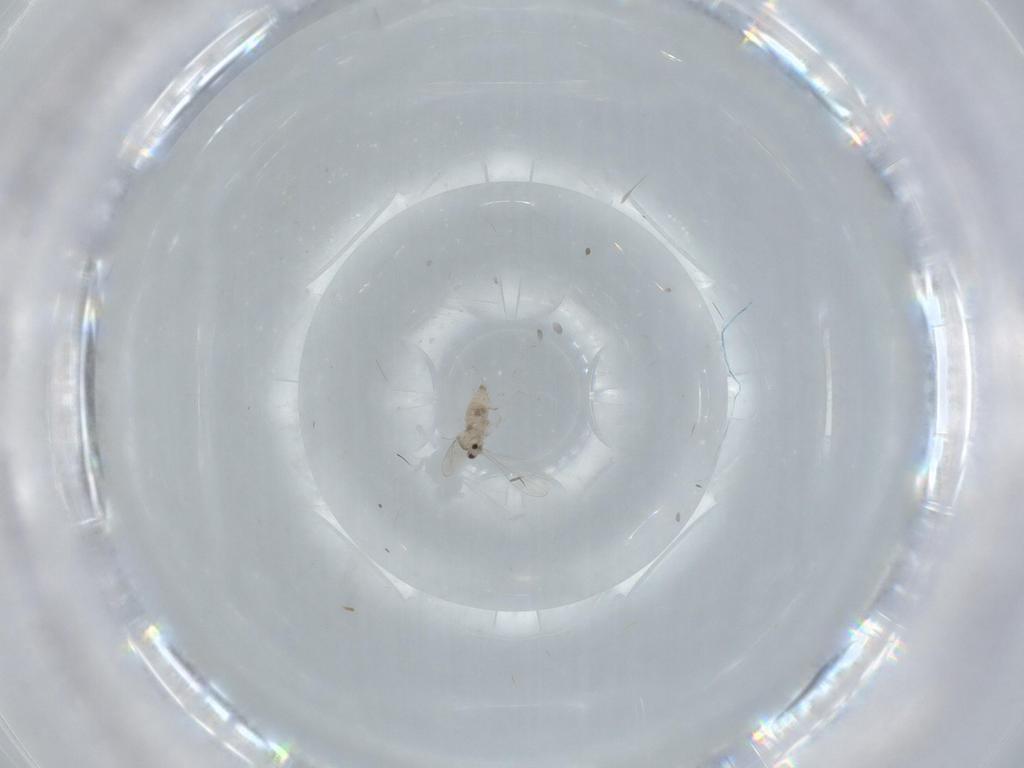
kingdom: Animalia
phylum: Arthropoda
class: Insecta
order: Diptera
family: Cecidomyiidae
